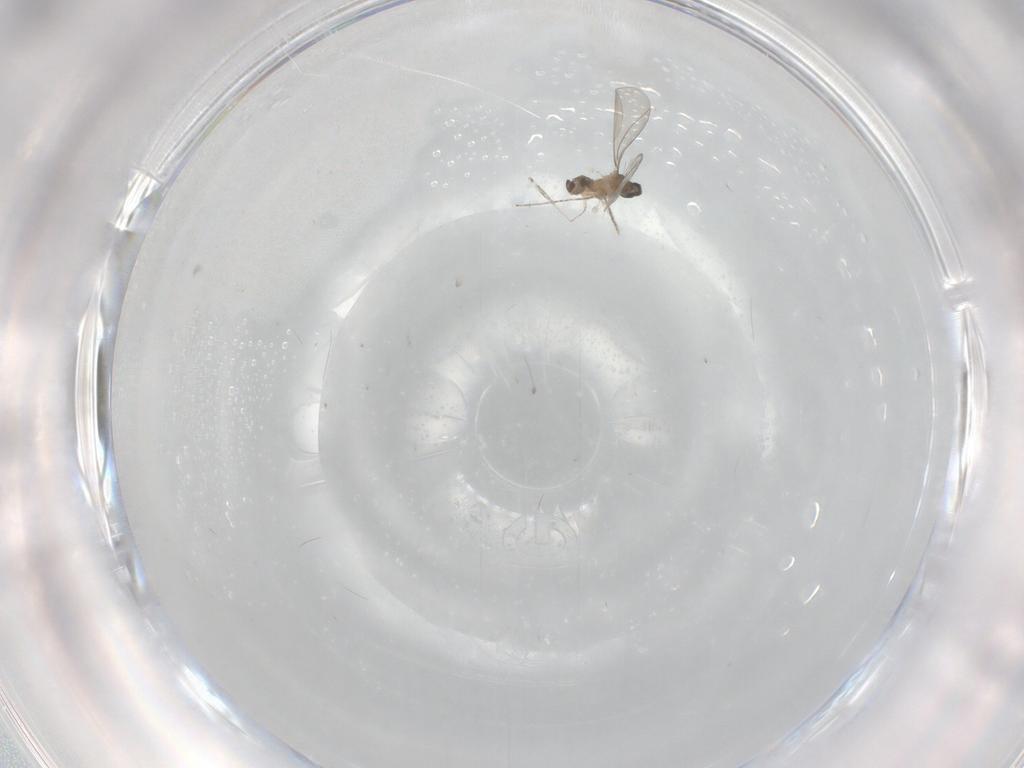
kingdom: Animalia
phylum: Arthropoda
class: Insecta
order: Diptera
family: Cecidomyiidae
